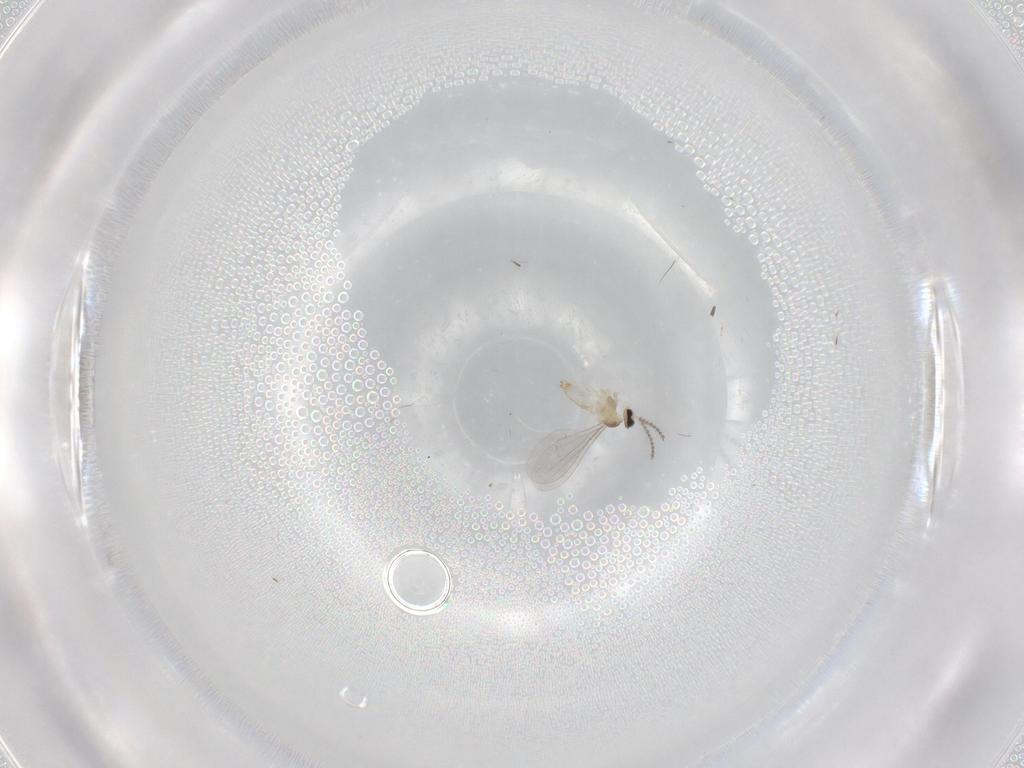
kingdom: Animalia
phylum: Arthropoda
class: Insecta
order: Diptera
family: Cecidomyiidae
